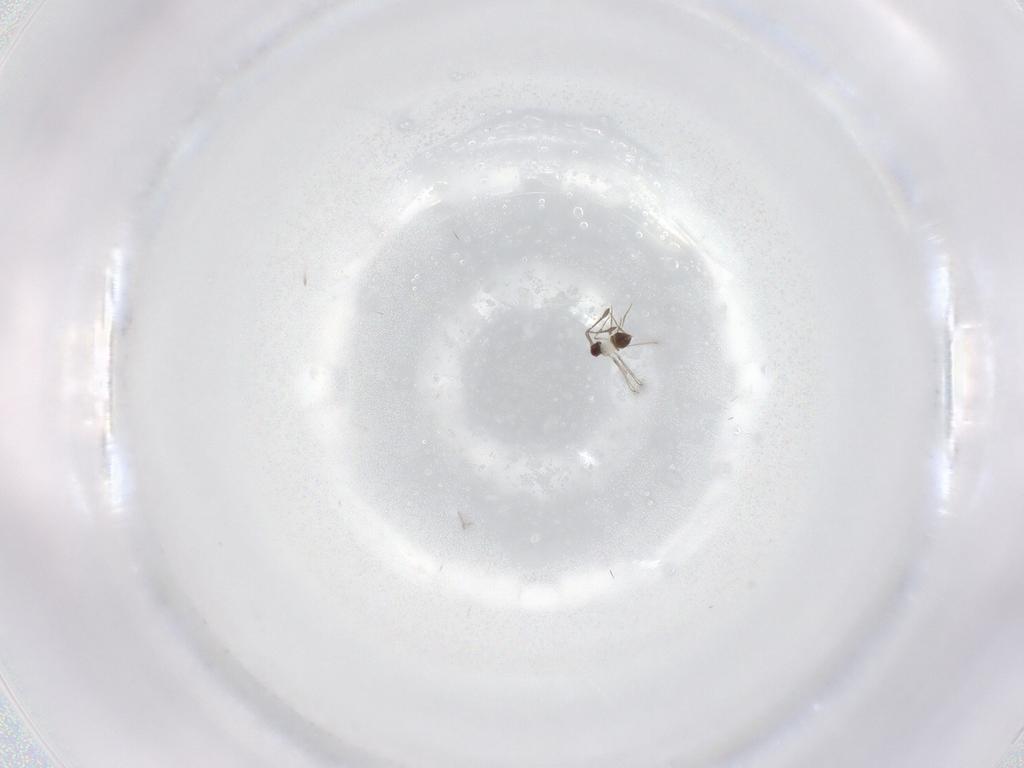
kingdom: Animalia
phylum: Arthropoda
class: Insecta
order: Hymenoptera
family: Mymaridae
